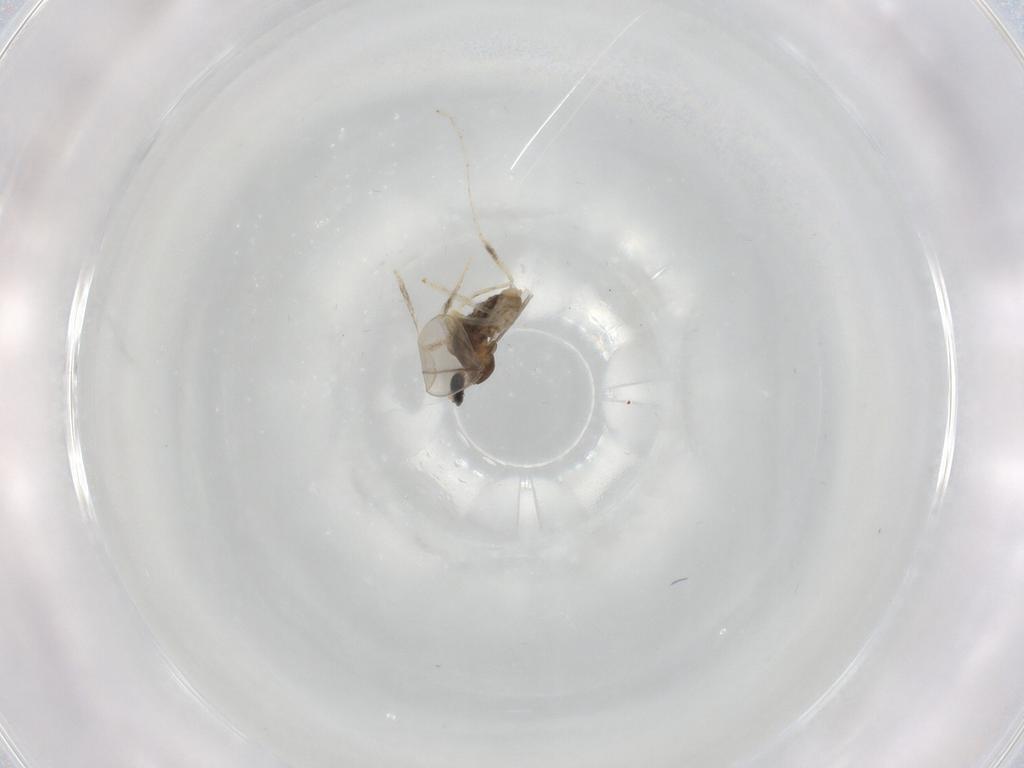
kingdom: Animalia
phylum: Arthropoda
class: Insecta
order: Diptera
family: Cecidomyiidae
